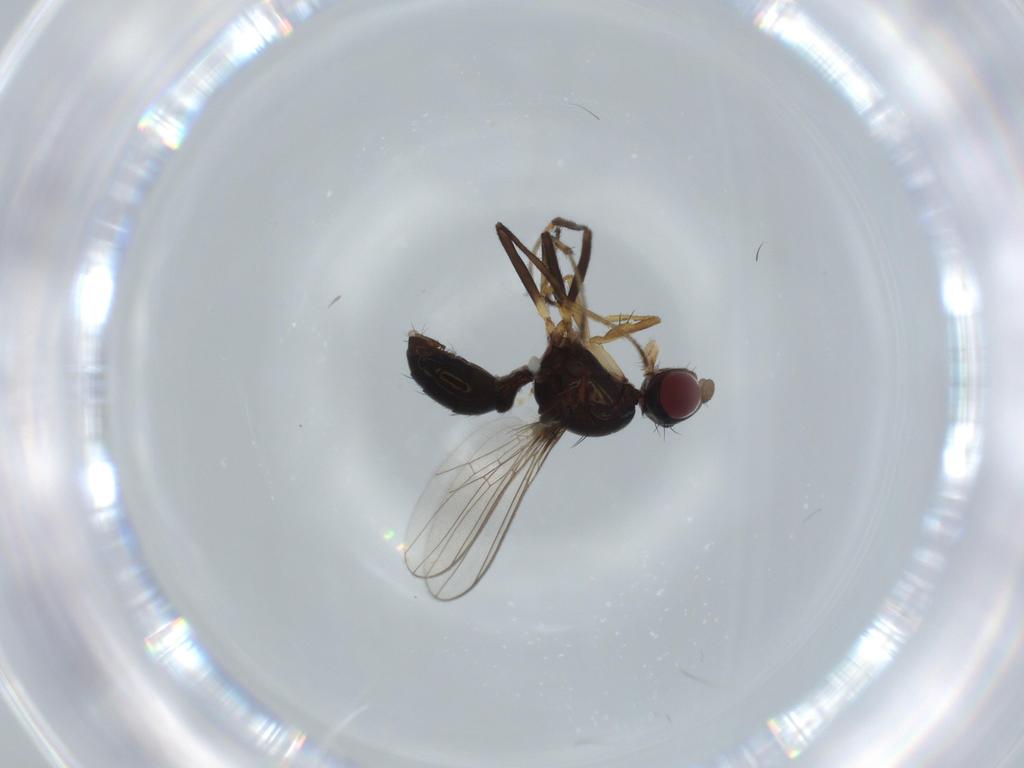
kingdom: Animalia
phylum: Arthropoda
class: Insecta
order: Diptera
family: Sepsidae
